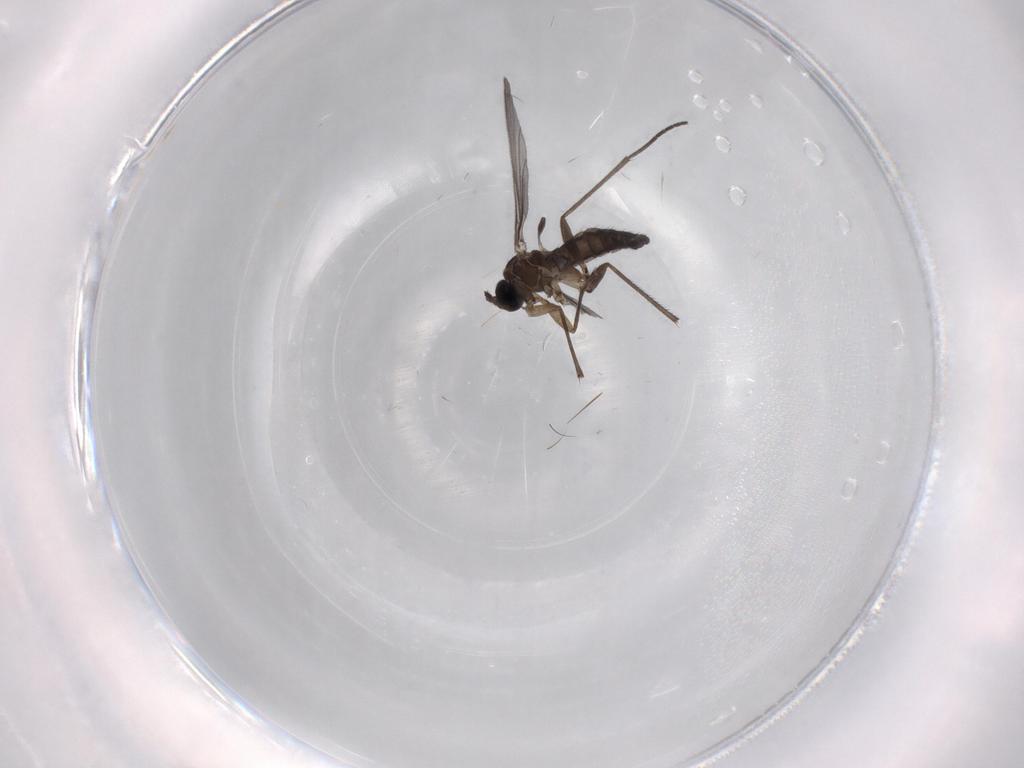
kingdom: Animalia
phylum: Arthropoda
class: Insecta
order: Diptera
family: Sciaridae
